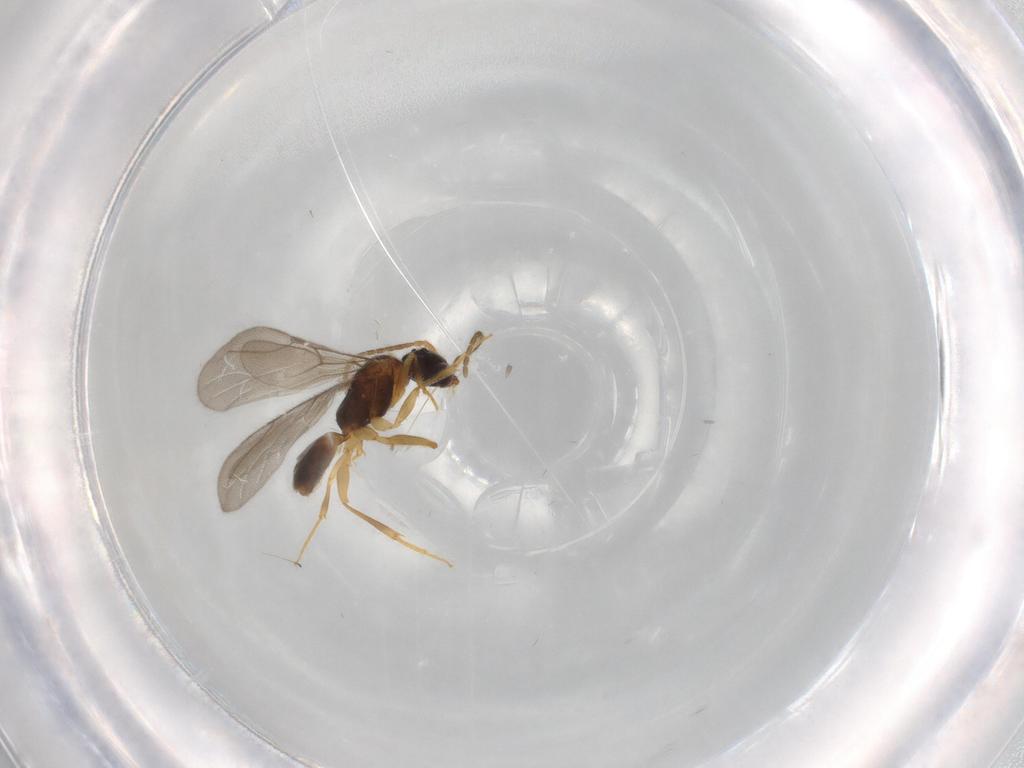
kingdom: Animalia
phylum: Arthropoda
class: Insecta
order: Hymenoptera
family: Bethylidae
